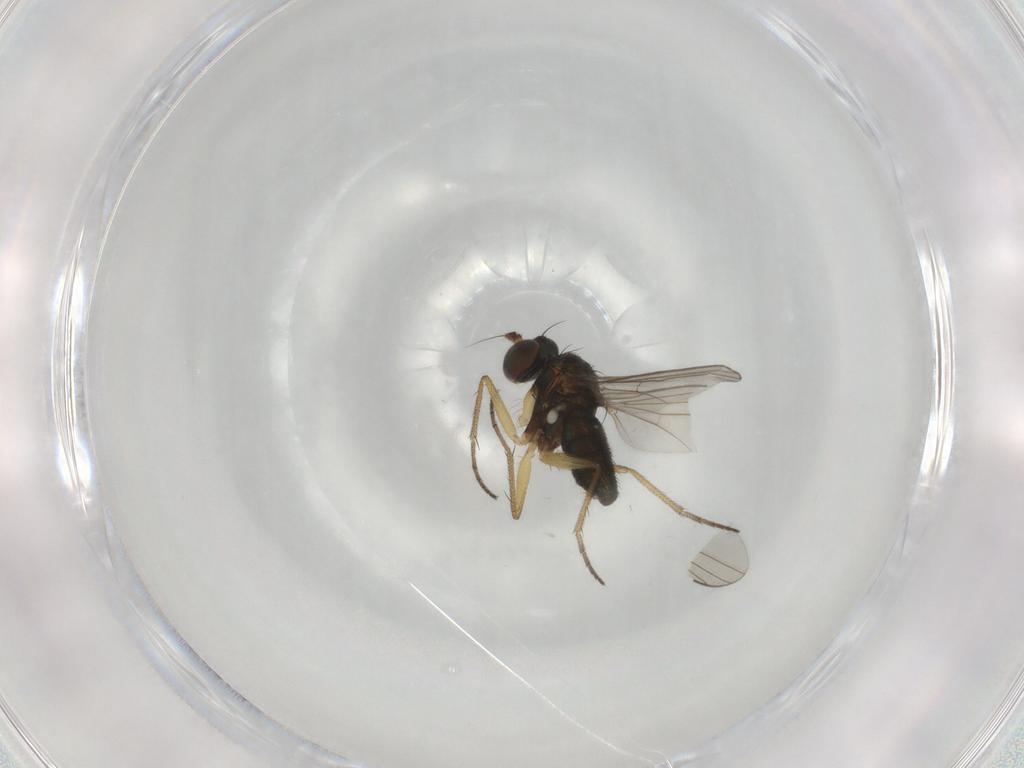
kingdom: Animalia
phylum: Arthropoda
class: Insecta
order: Diptera
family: Dolichopodidae
